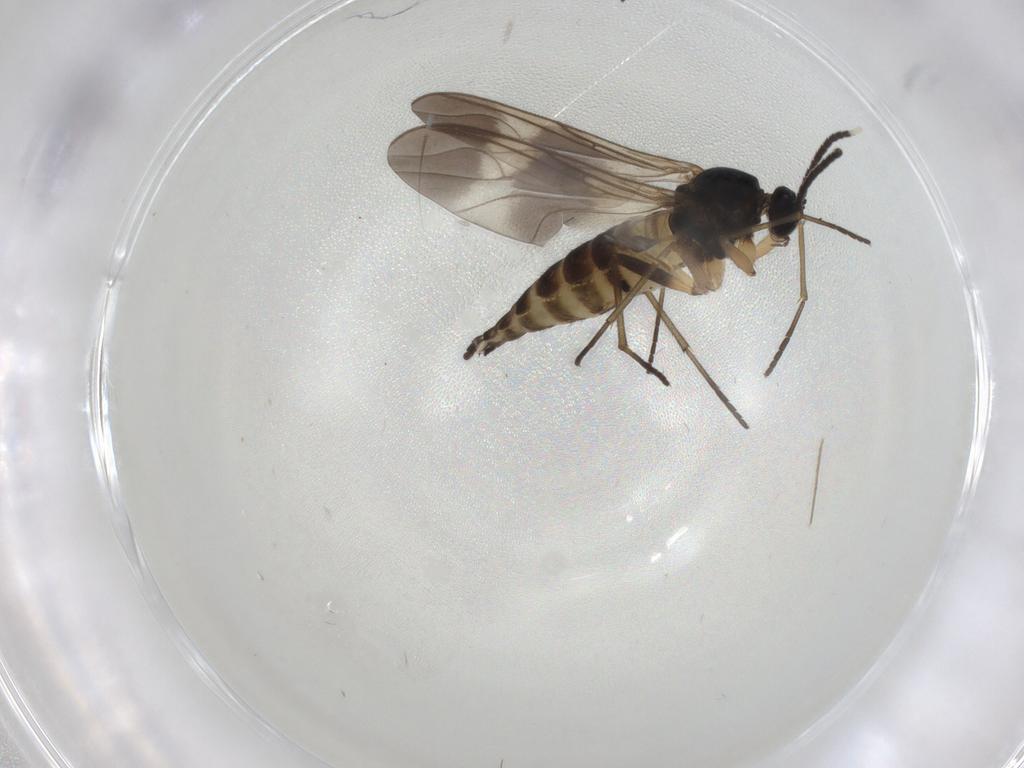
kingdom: Animalia
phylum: Arthropoda
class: Insecta
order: Diptera
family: Sciaridae
